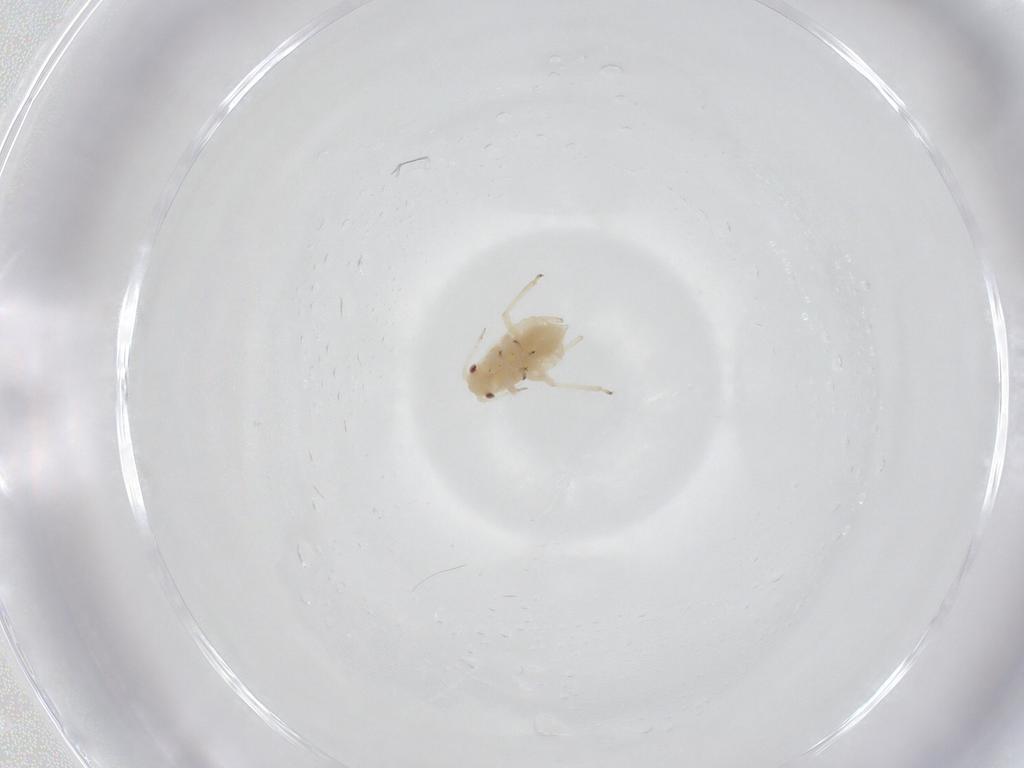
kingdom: Animalia
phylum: Arthropoda
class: Insecta
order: Hemiptera
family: Aphididae
